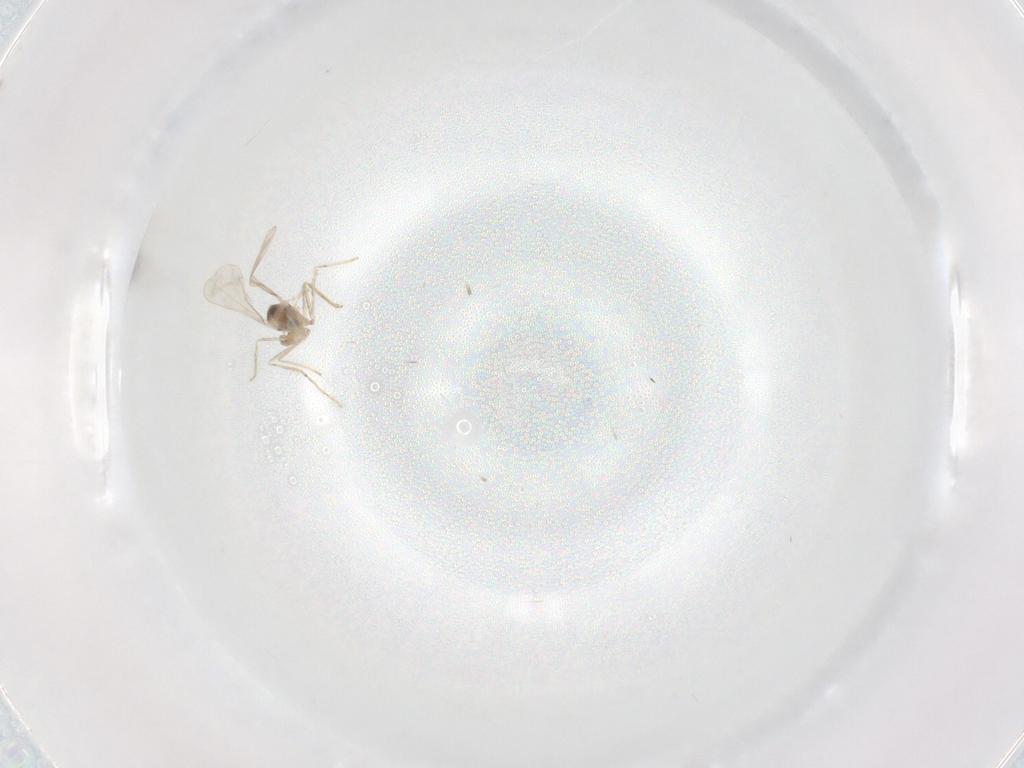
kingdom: Animalia
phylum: Arthropoda
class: Insecta
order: Diptera
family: Cecidomyiidae
